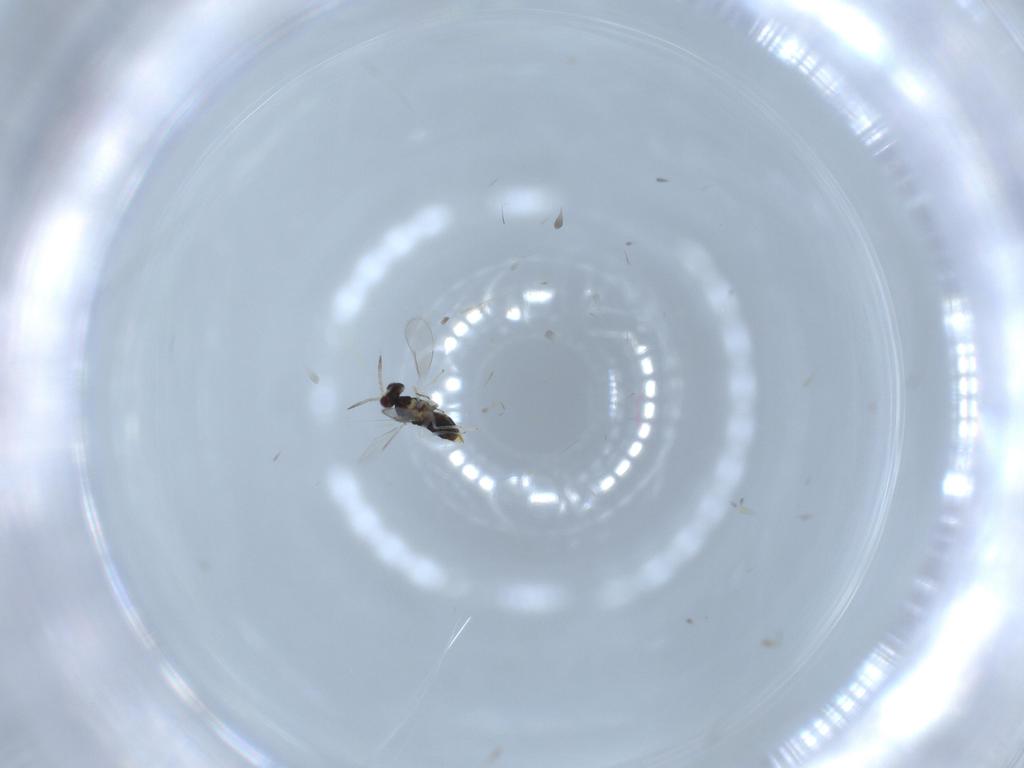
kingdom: Animalia
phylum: Arthropoda
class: Insecta
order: Hymenoptera
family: Aphelinidae
